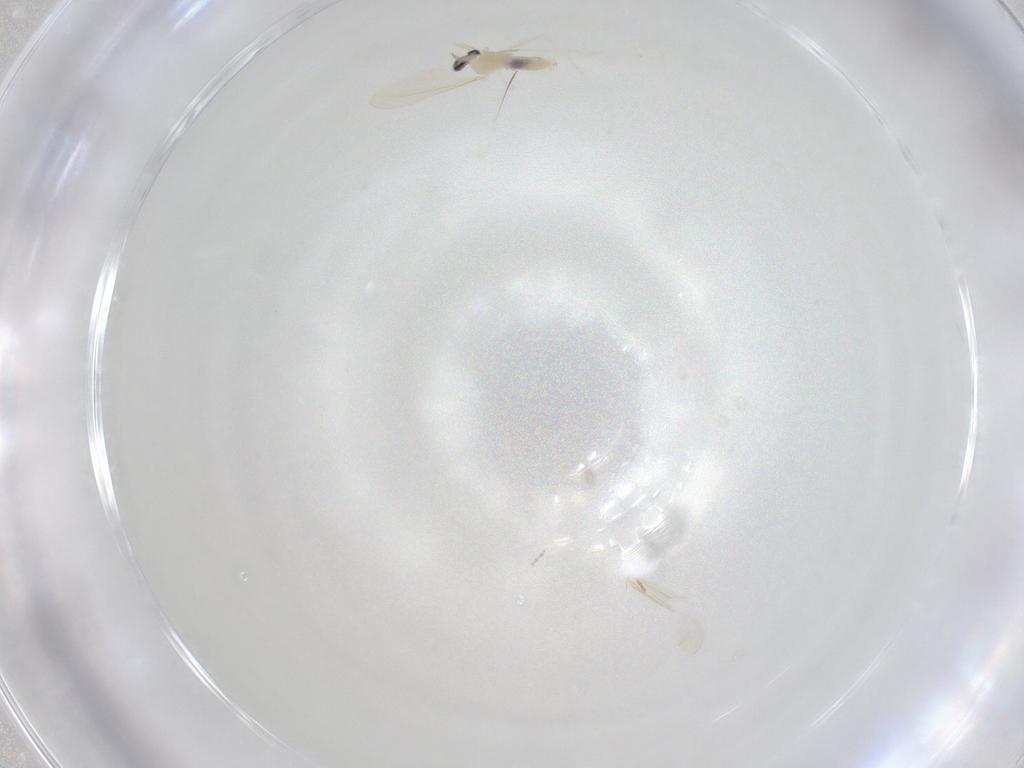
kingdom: Animalia
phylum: Arthropoda
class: Insecta
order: Diptera
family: Cecidomyiidae
